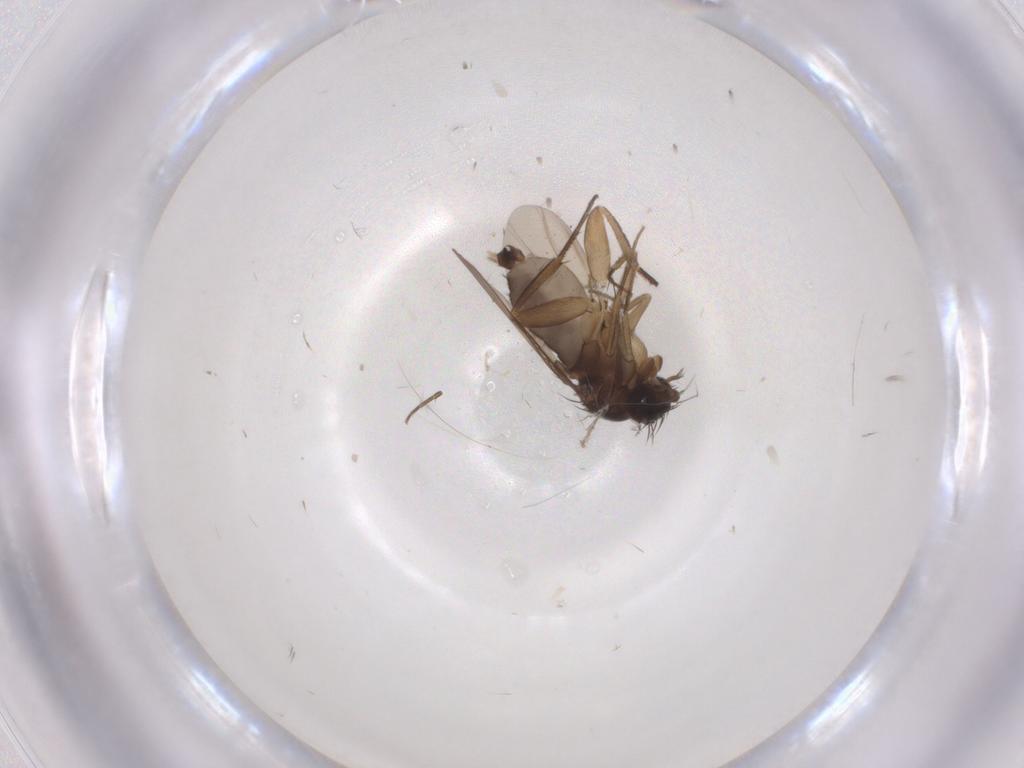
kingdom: Animalia
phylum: Arthropoda
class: Insecta
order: Diptera
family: Phoridae
